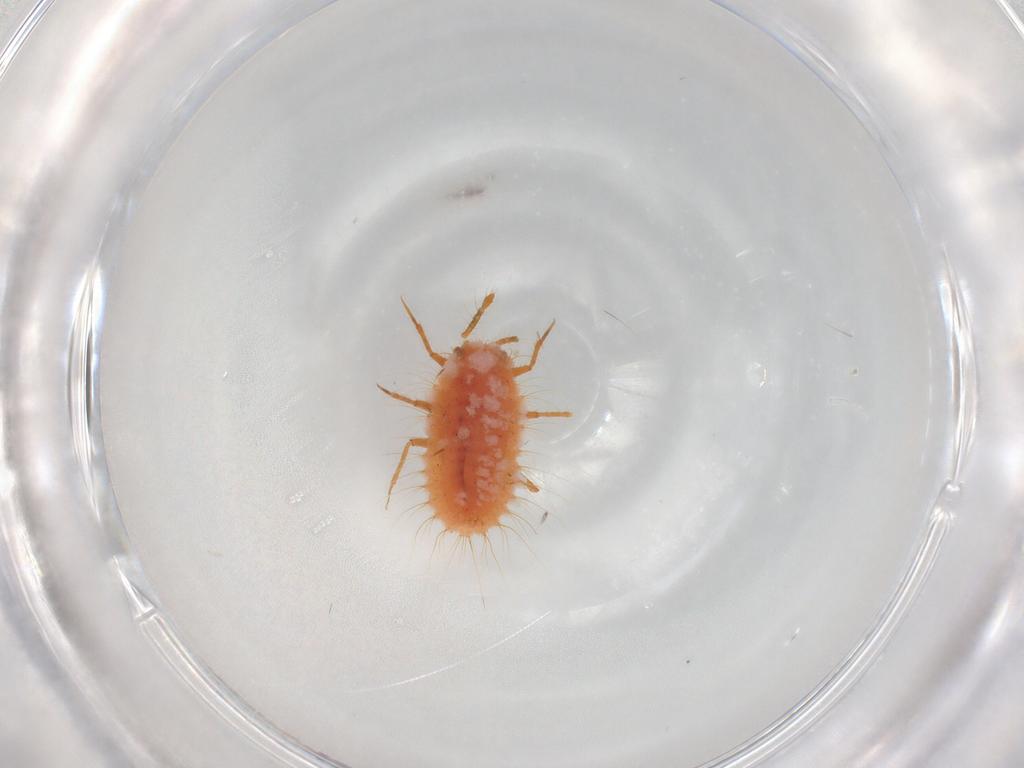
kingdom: Animalia
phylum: Arthropoda
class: Insecta
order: Hemiptera
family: Coccoidea_incertae_sedis
